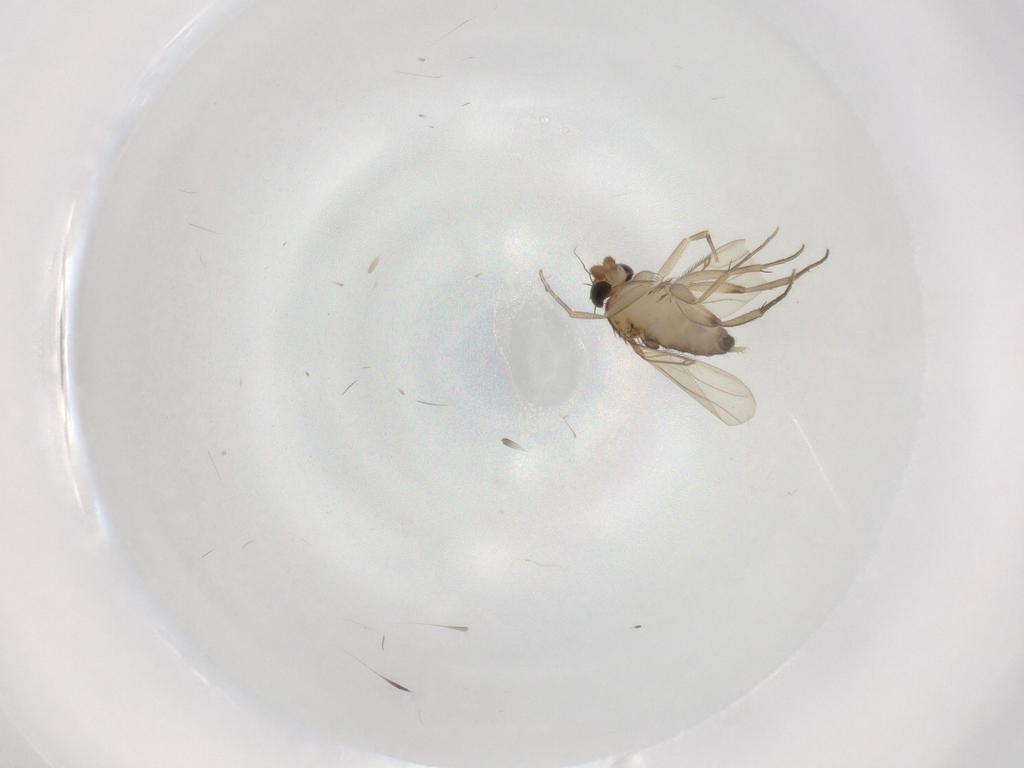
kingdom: Animalia
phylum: Arthropoda
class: Insecta
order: Diptera
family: Phoridae
